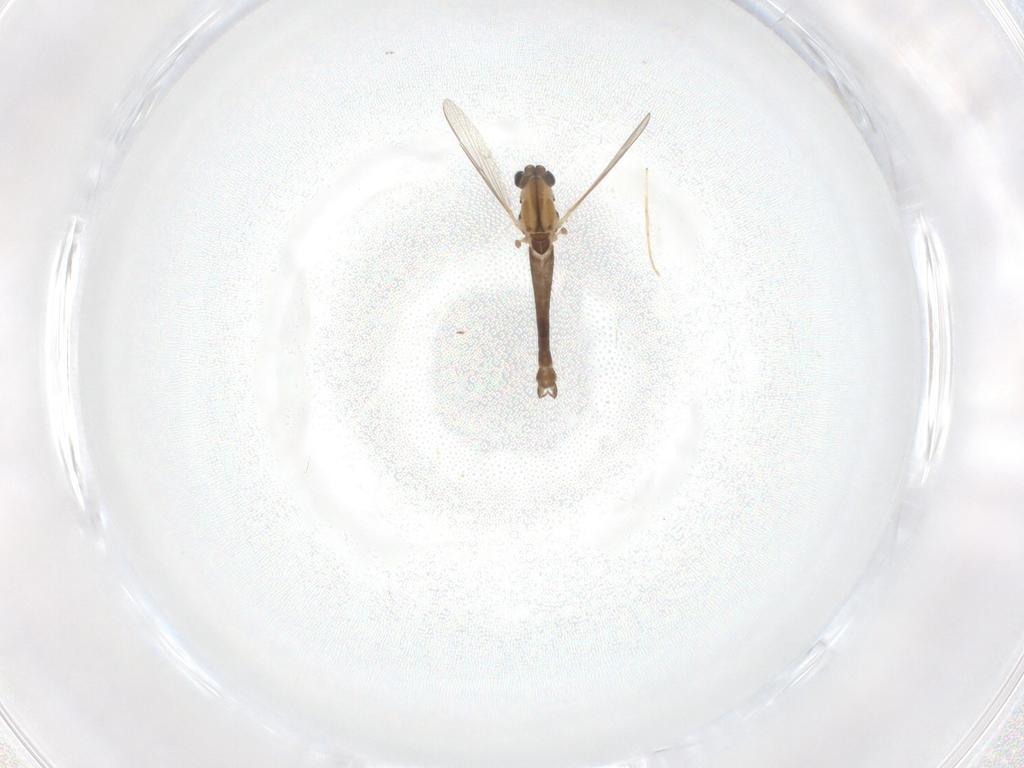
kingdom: Animalia
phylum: Arthropoda
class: Insecta
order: Diptera
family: Chironomidae
